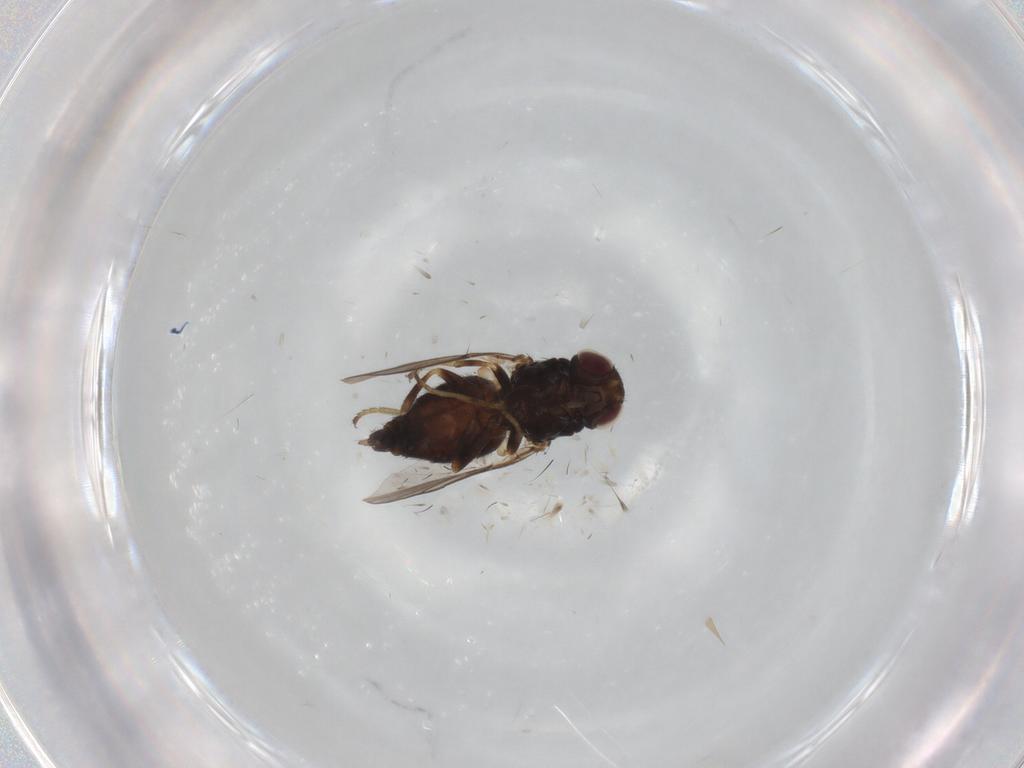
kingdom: Animalia
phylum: Arthropoda
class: Insecta
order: Diptera
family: Chloropidae
